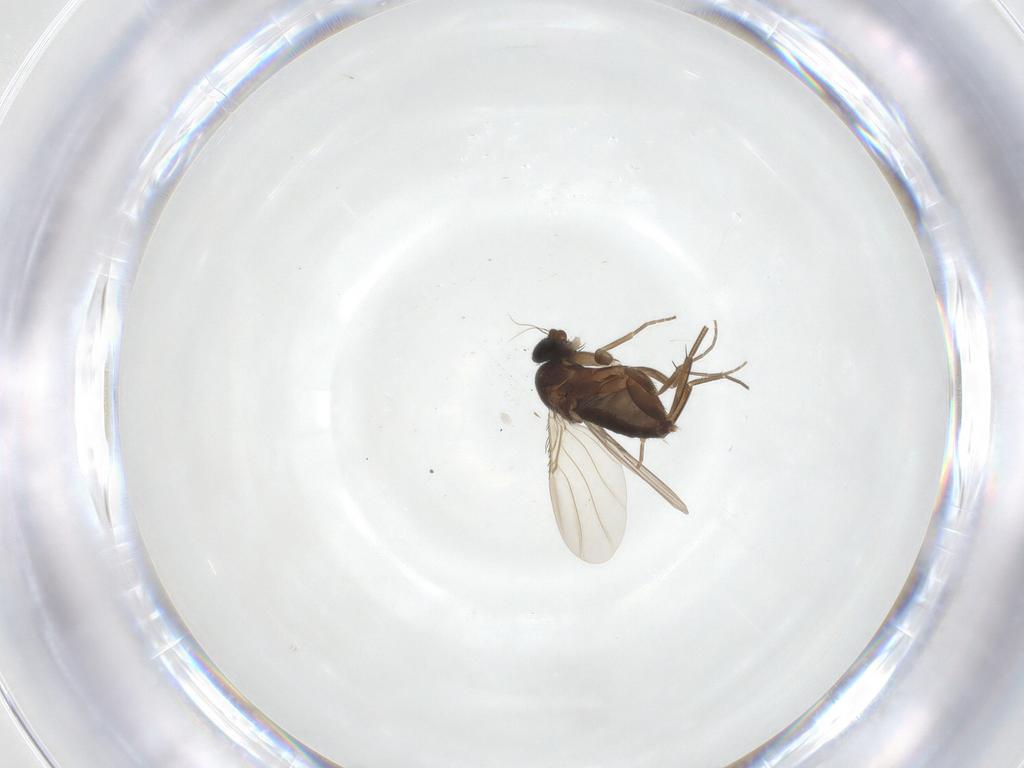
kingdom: Animalia
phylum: Arthropoda
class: Insecta
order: Diptera
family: Phoridae
